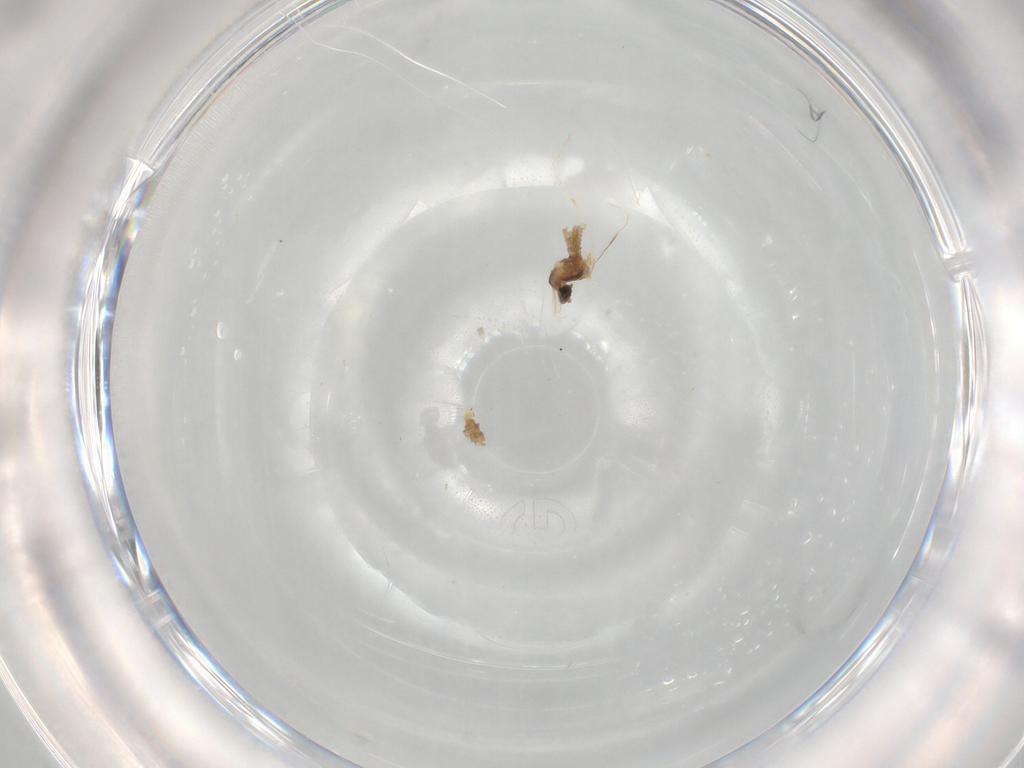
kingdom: Animalia
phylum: Arthropoda
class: Insecta
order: Diptera
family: Cecidomyiidae
